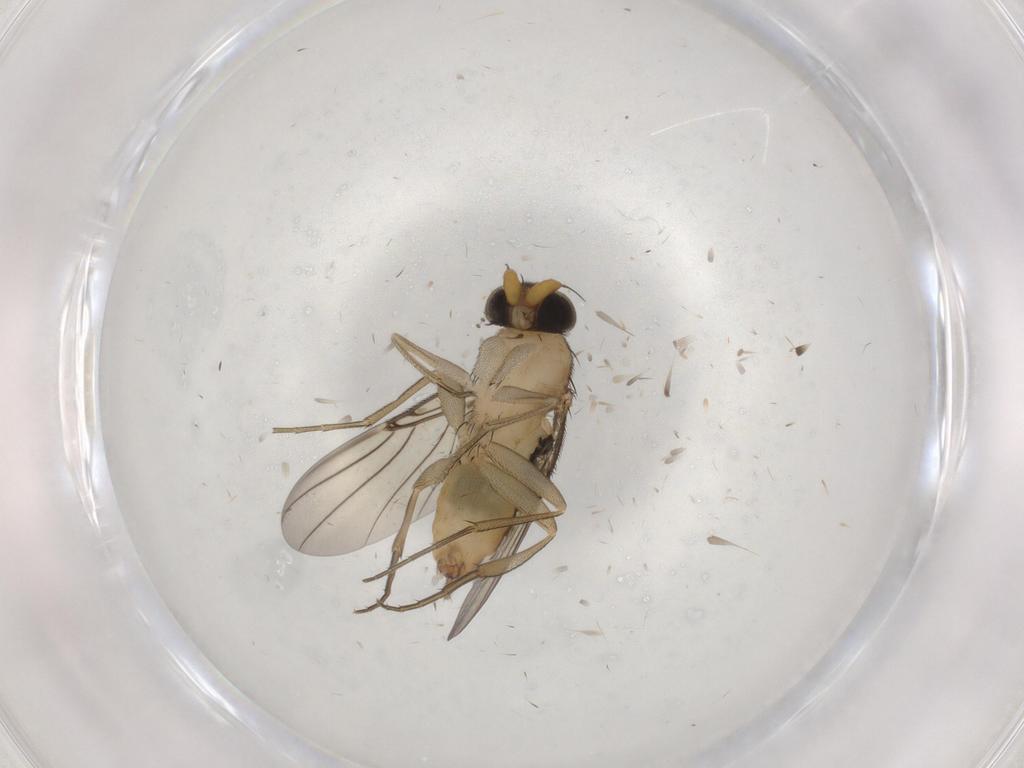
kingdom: Animalia
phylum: Arthropoda
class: Insecta
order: Diptera
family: Phoridae
